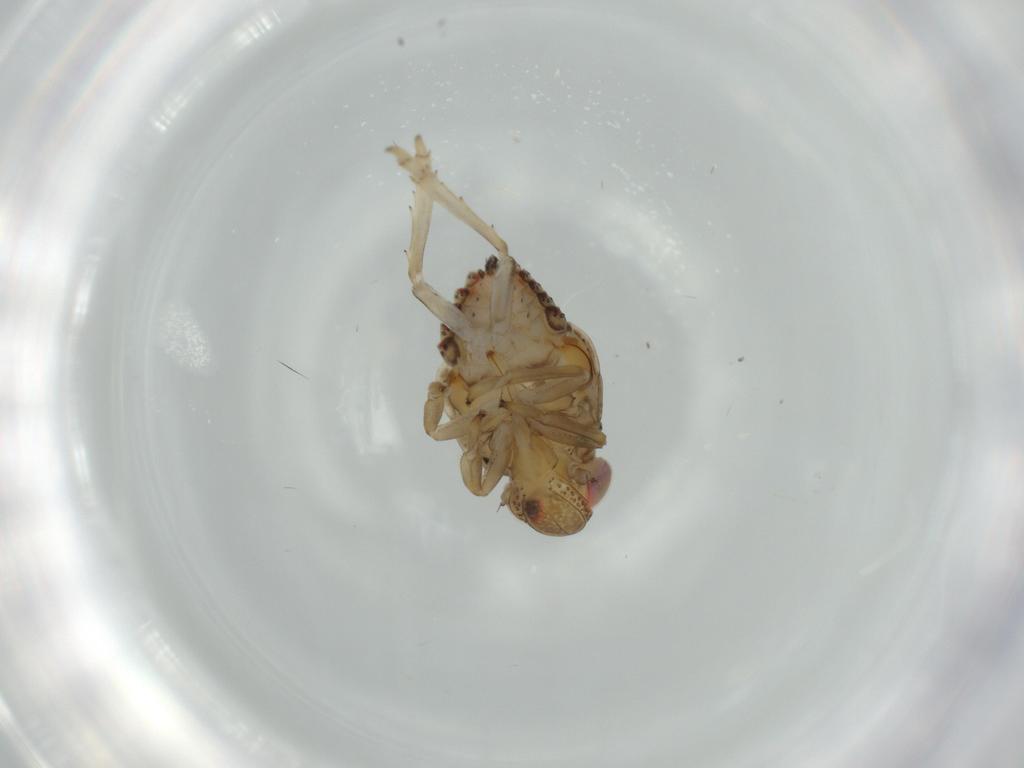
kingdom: Animalia
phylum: Arthropoda
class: Insecta
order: Hemiptera
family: Issidae
